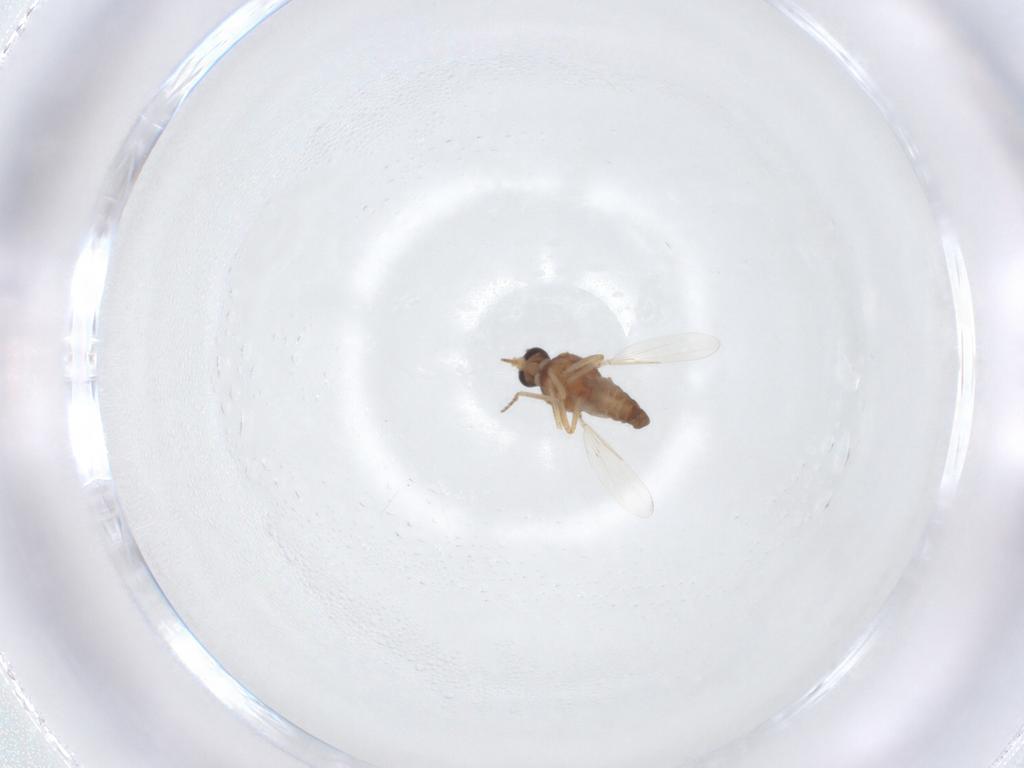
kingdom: Animalia
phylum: Arthropoda
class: Insecta
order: Diptera
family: Ceratopogonidae
